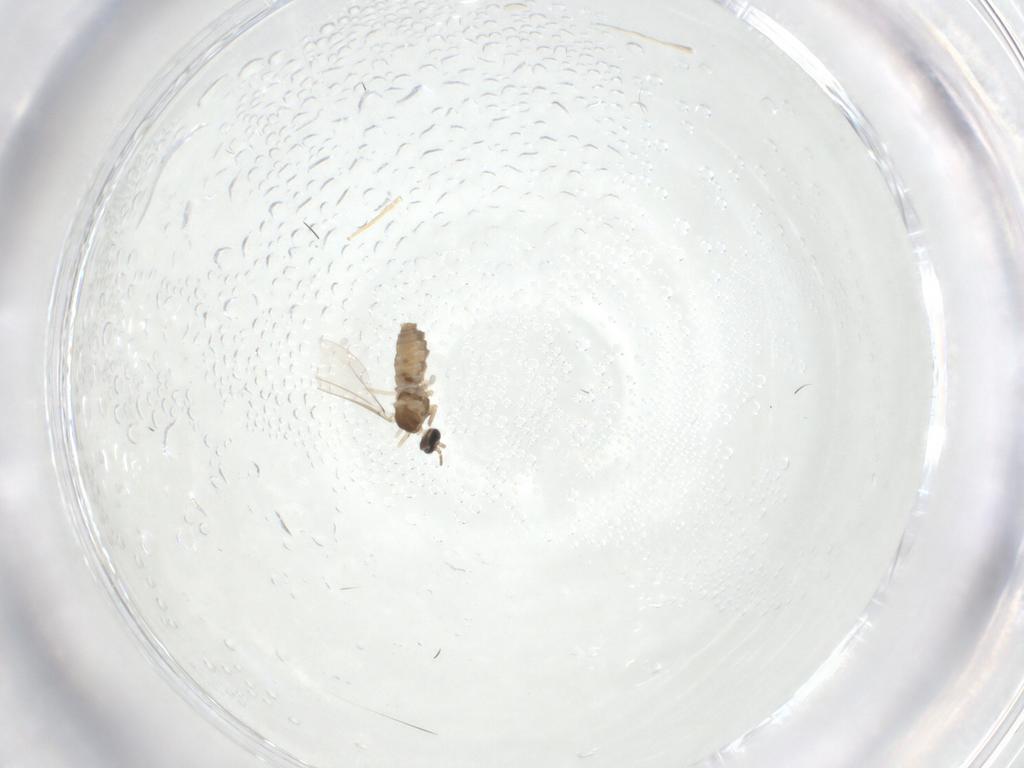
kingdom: Animalia
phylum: Arthropoda
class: Insecta
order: Diptera
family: Cecidomyiidae
